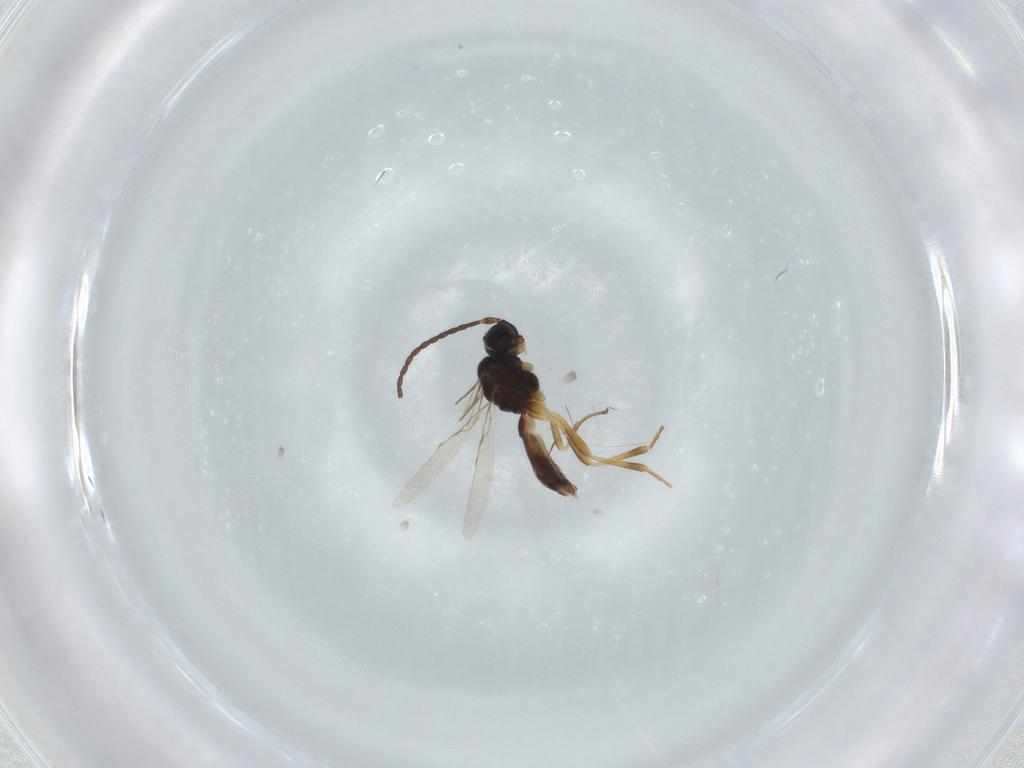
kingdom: Animalia
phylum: Arthropoda
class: Insecta
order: Hymenoptera
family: Braconidae
